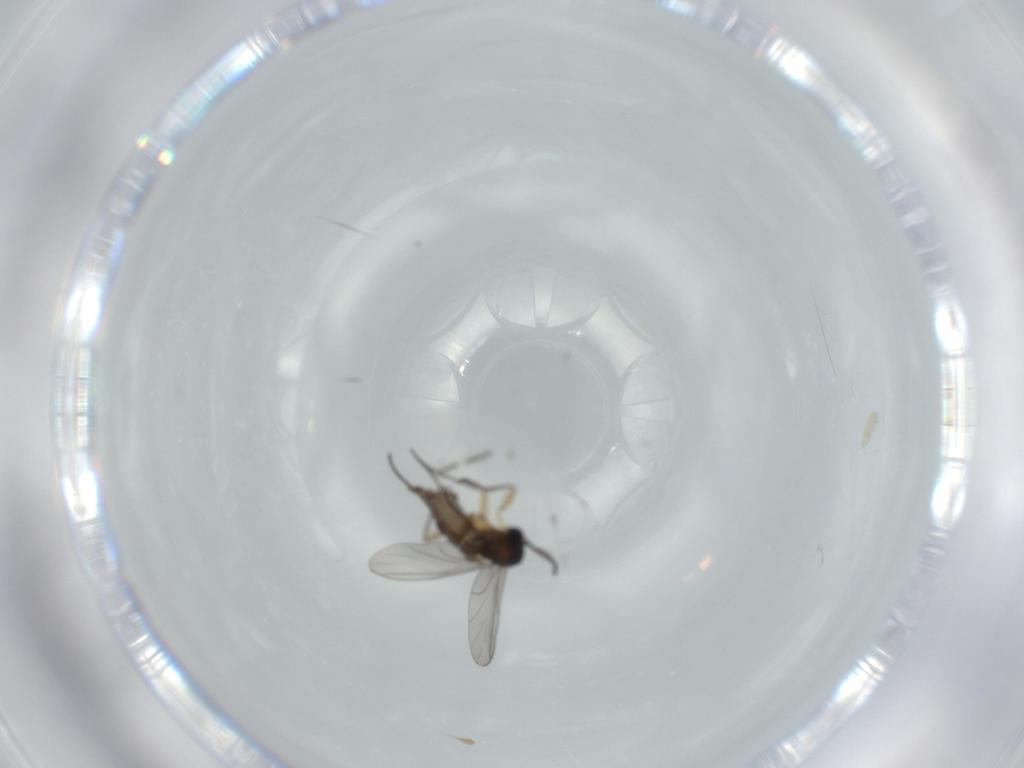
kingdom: Animalia
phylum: Arthropoda
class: Insecta
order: Diptera
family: Sciaridae
